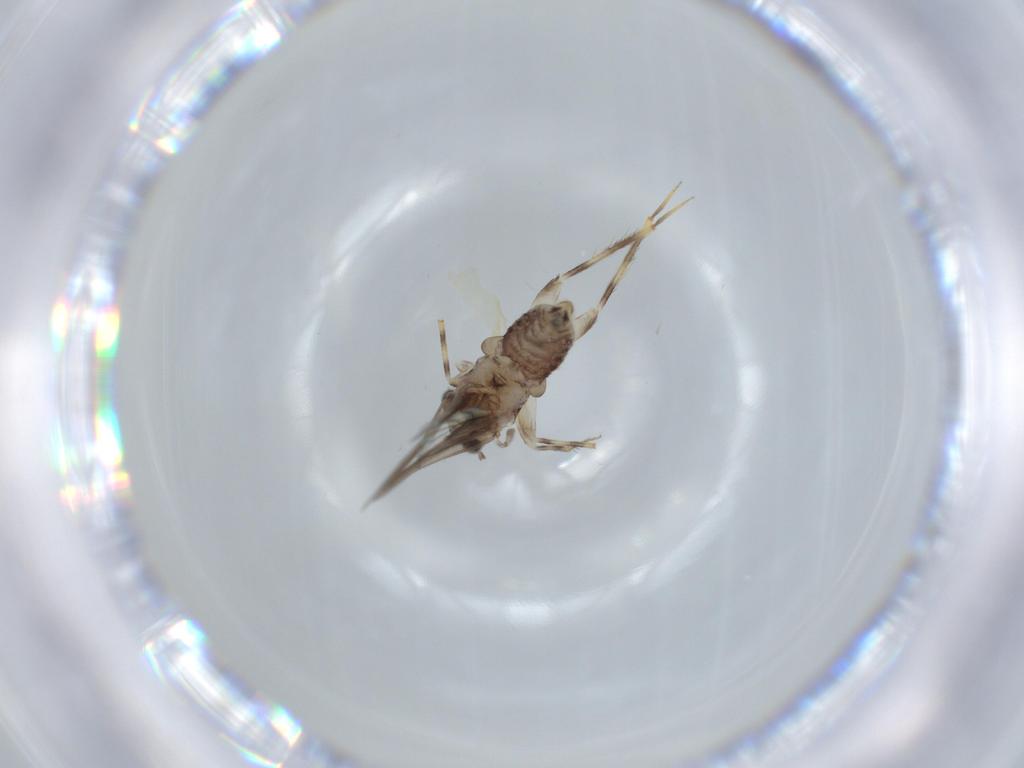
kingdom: Animalia
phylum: Arthropoda
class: Insecta
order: Psocodea
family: Lepidopsocidae
